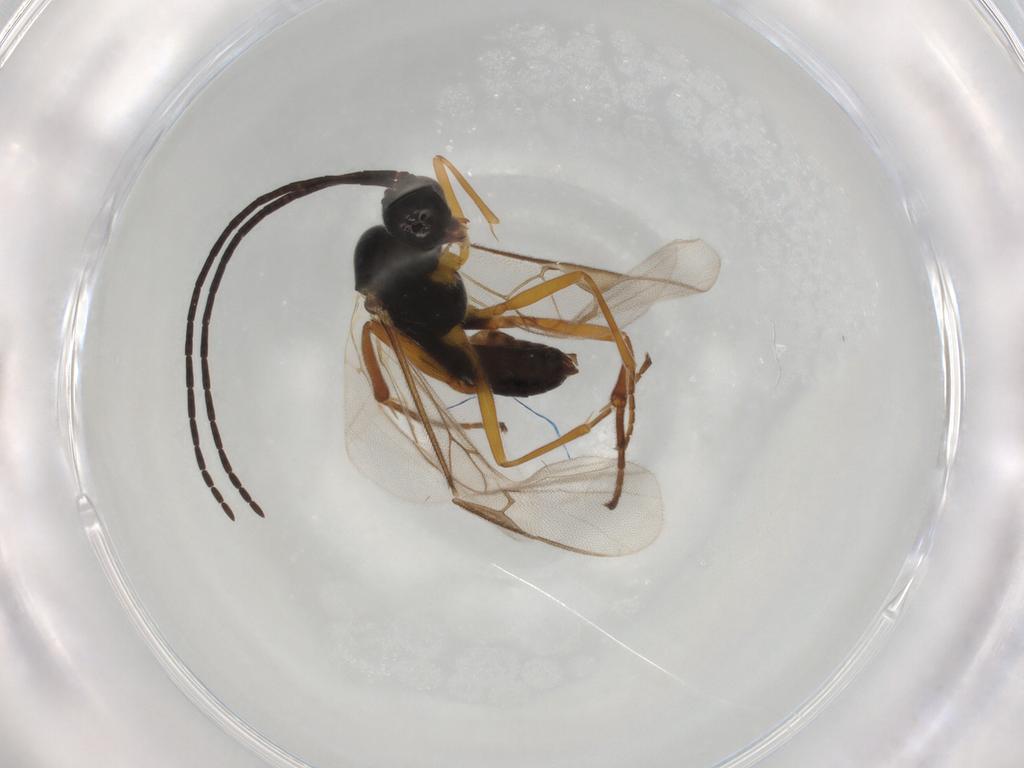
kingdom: Animalia
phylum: Arthropoda
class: Insecta
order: Hymenoptera
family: Braconidae
